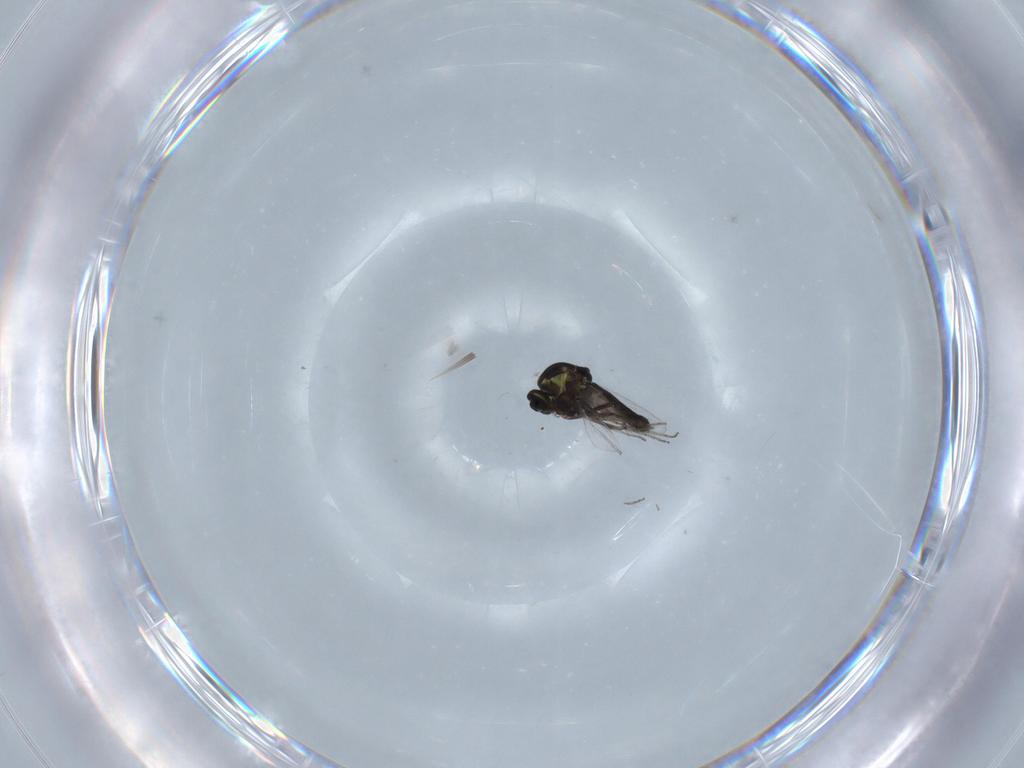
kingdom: Animalia
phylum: Arthropoda
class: Insecta
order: Diptera
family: Ceratopogonidae
